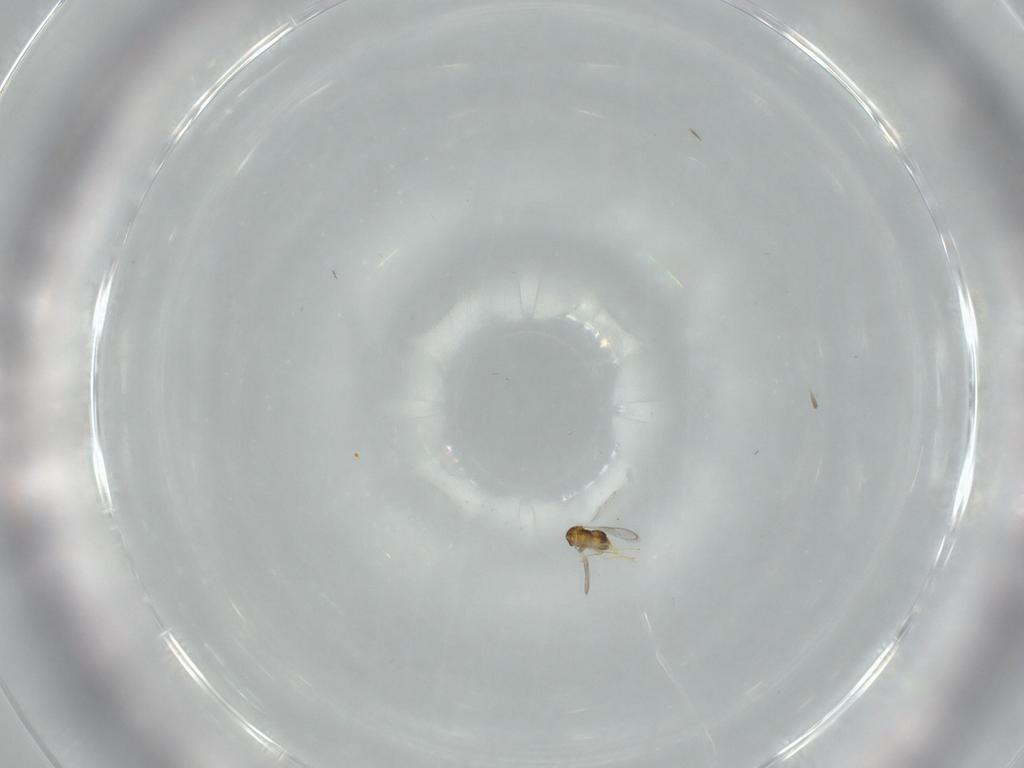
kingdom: Animalia
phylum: Arthropoda
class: Insecta
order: Hymenoptera
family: Aphelinidae
